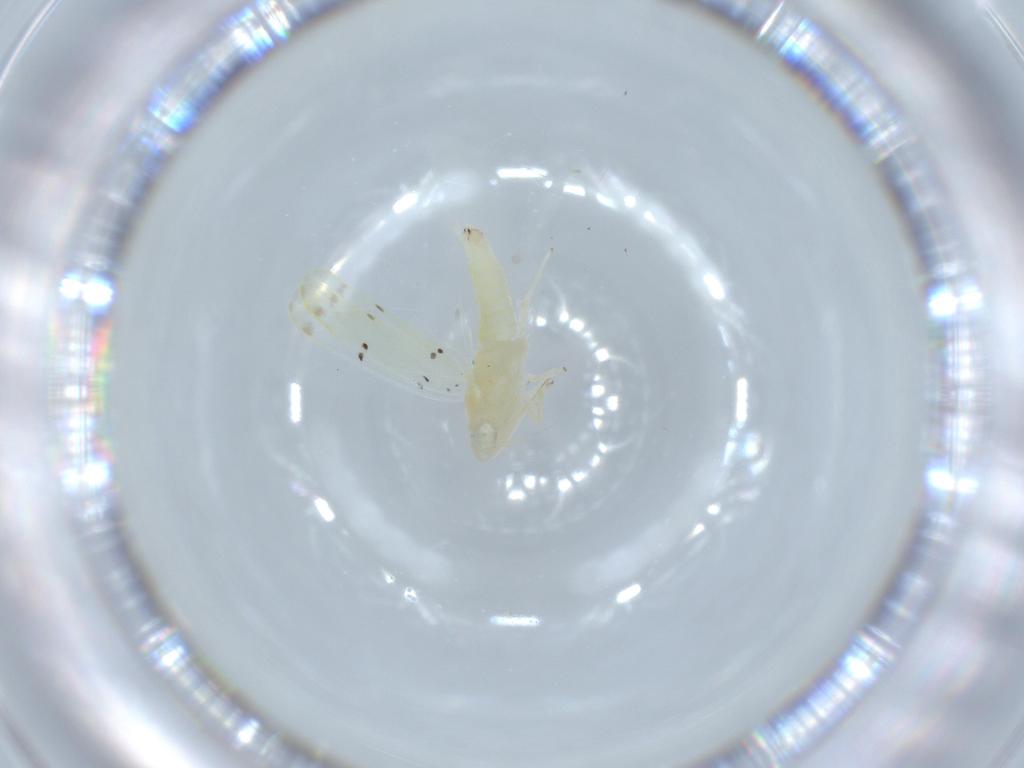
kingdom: Animalia
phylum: Arthropoda
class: Insecta
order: Hemiptera
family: Cicadellidae
